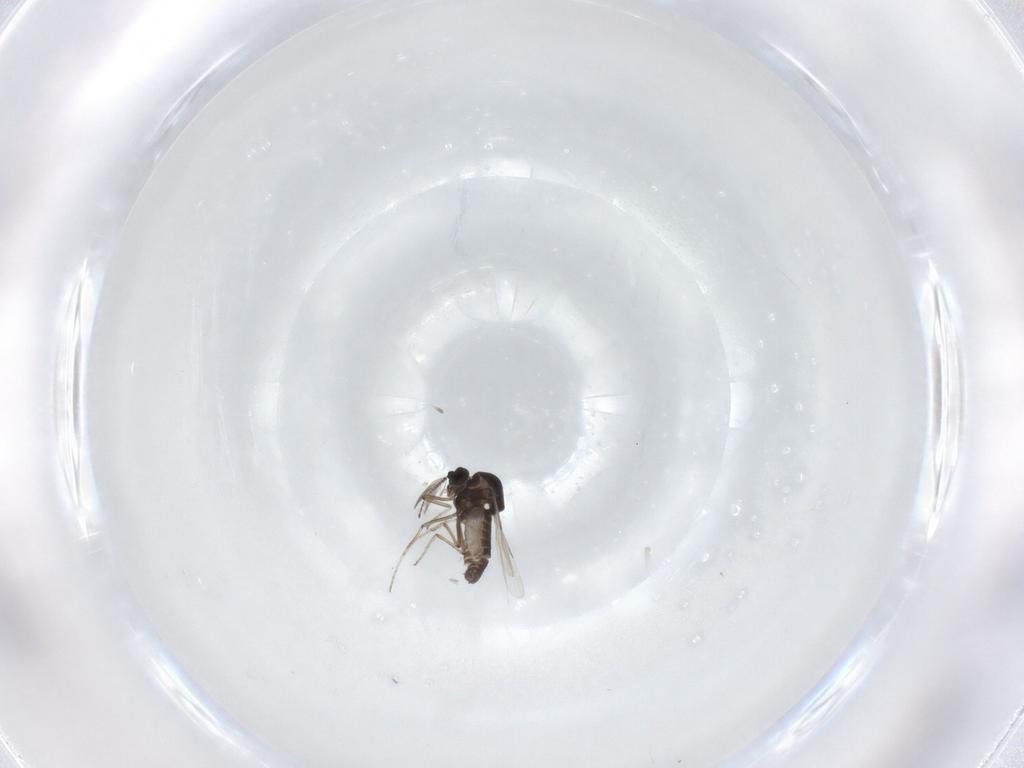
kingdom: Animalia
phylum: Arthropoda
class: Insecta
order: Diptera
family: Ceratopogonidae
